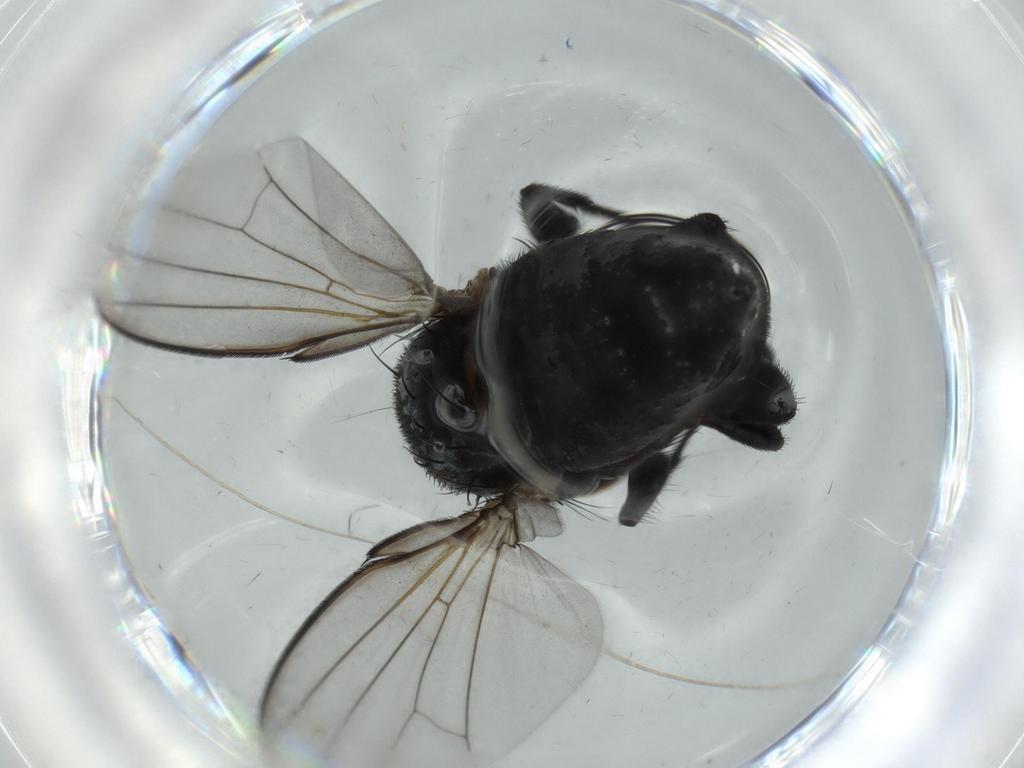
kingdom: Animalia
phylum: Arthropoda
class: Insecta
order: Diptera
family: Milichiidae
